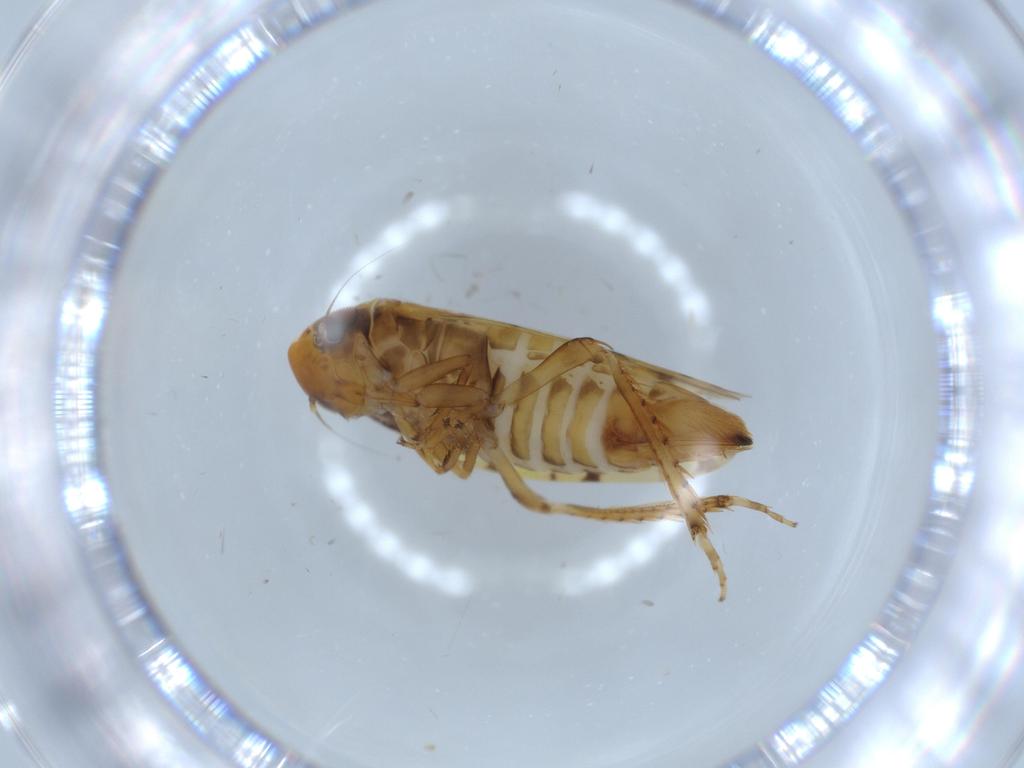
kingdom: Animalia
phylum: Arthropoda
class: Insecta
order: Hemiptera
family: Cicadellidae
